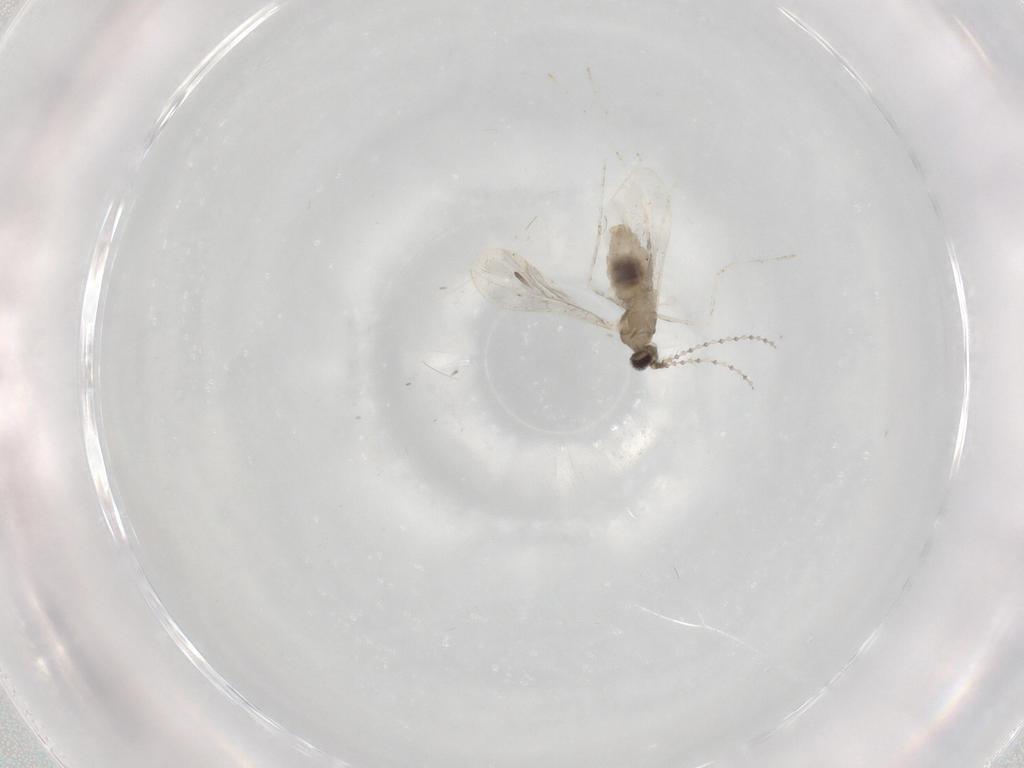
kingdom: Animalia
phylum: Arthropoda
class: Insecta
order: Diptera
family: Cecidomyiidae
